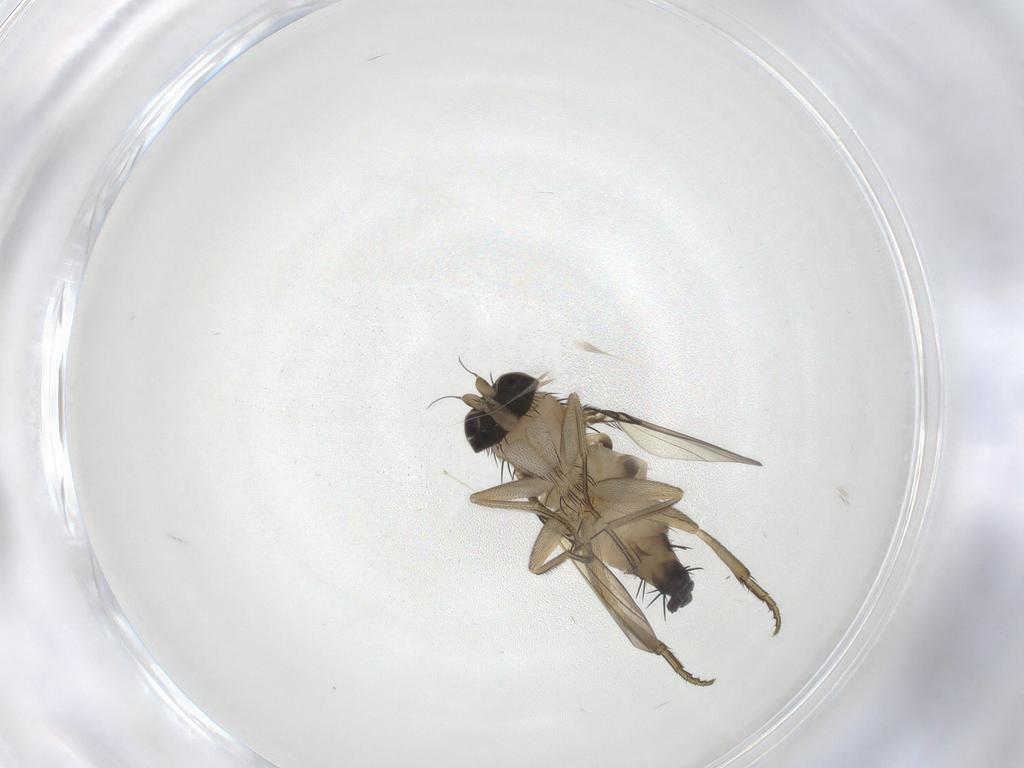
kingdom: Animalia
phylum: Arthropoda
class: Insecta
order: Diptera
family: Phoridae
